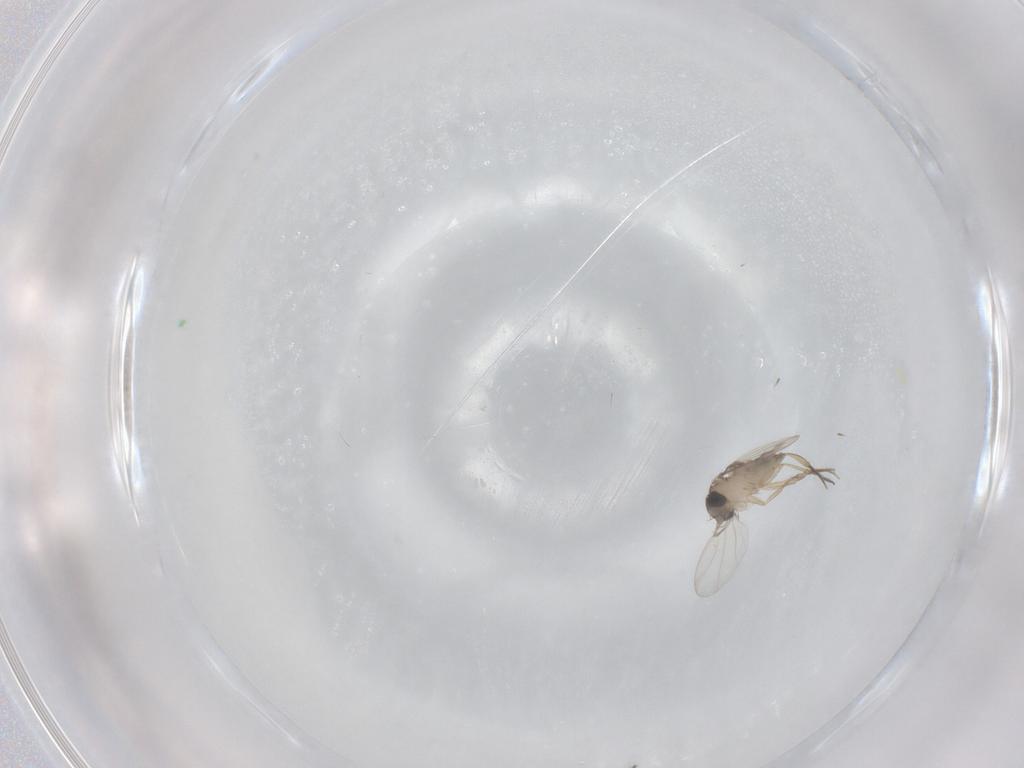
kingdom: Animalia
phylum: Arthropoda
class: Insecta
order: Diptera
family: Phoridae
